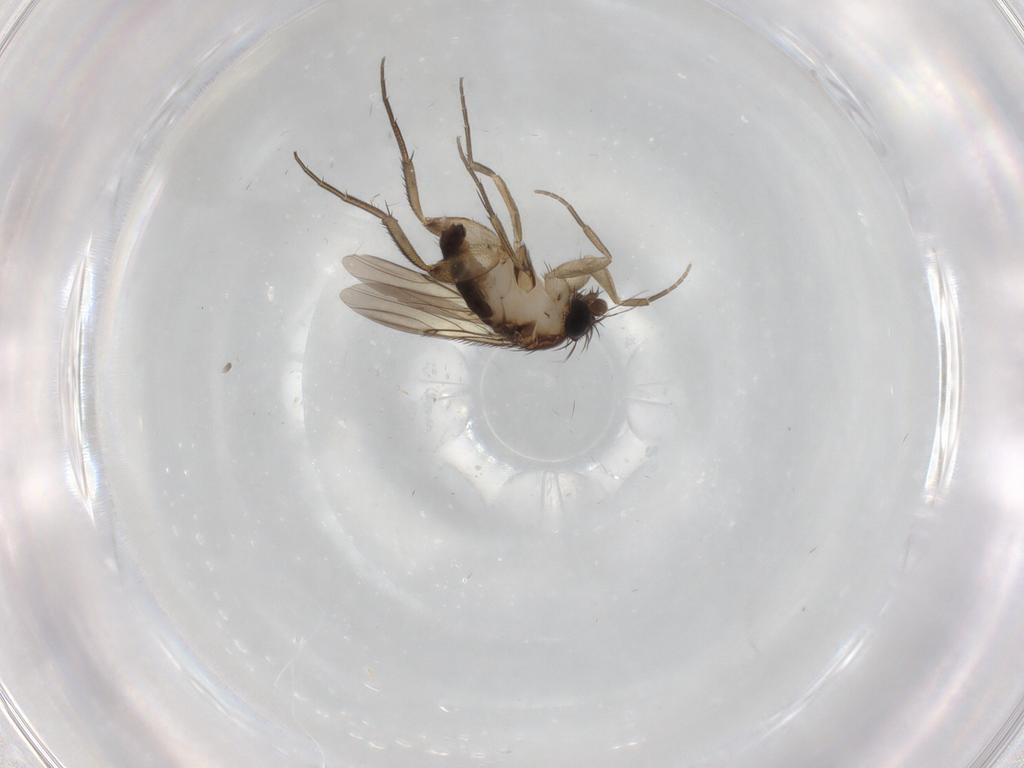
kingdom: Animalia
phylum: Arthropoda
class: Insecta
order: Diptera
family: Phoridae
